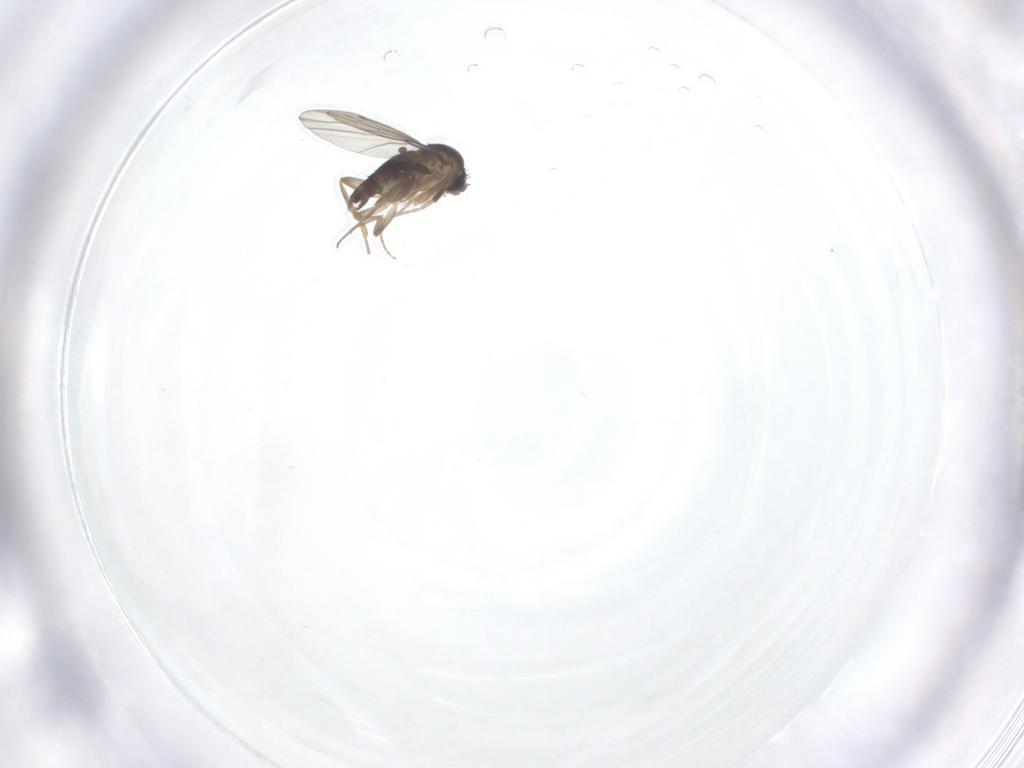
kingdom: Animalia
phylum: Arthropoda
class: Insecta
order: Diptera
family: Phoridae
